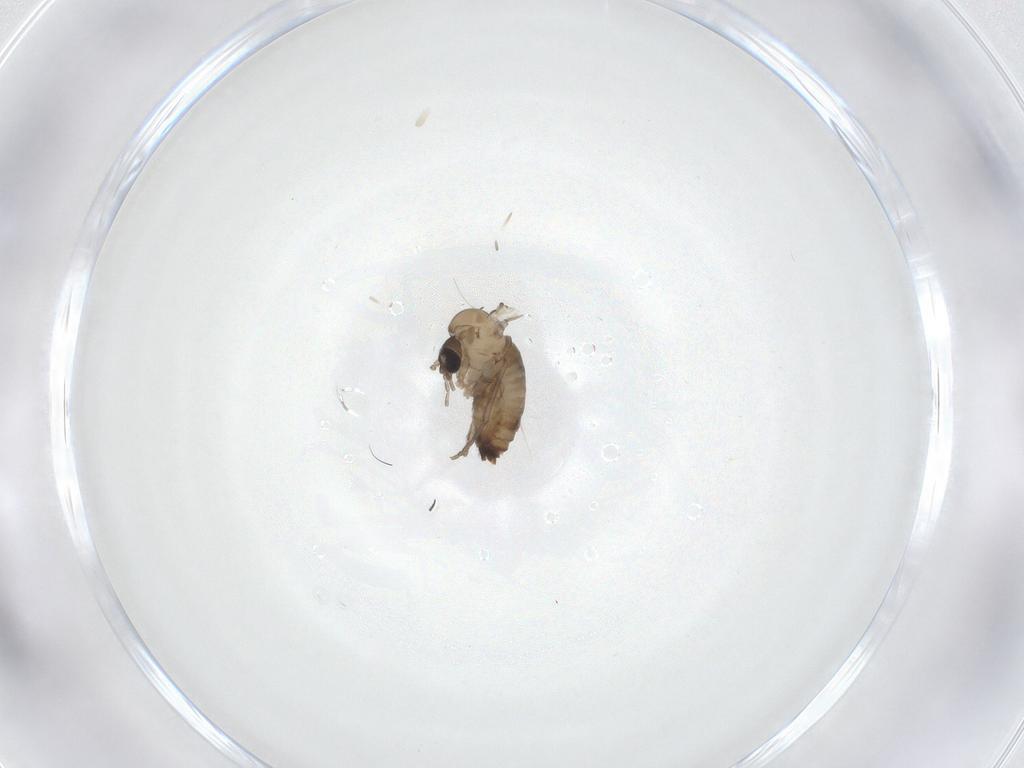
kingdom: Animalia
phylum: Arthropoda
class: Insecta
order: Diptera
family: Psychodidae
